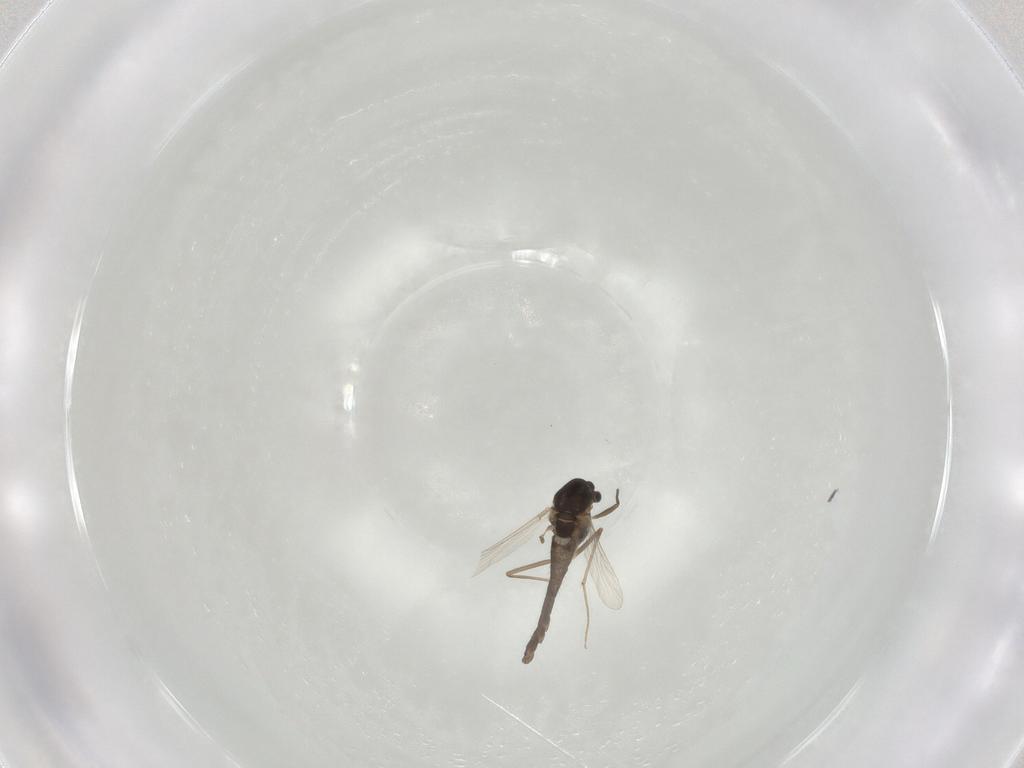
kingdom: Animalia
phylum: Arthropoda
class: Insecta
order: Diptera
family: Chironomidae
